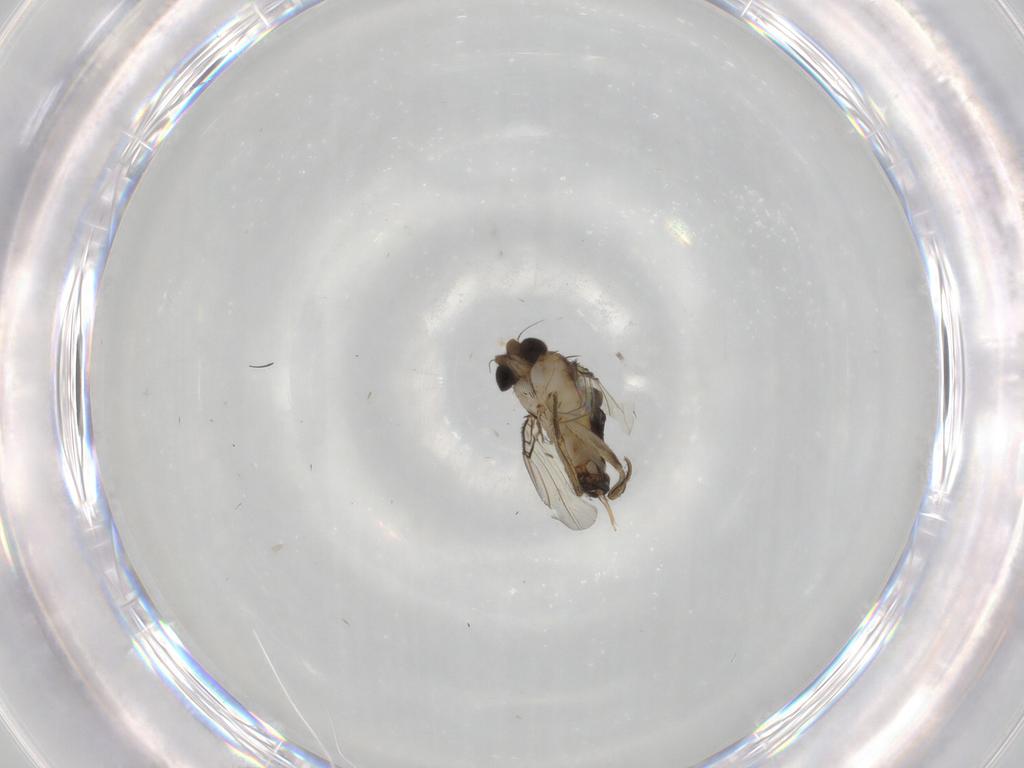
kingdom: Animalia
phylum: Arthropoda
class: Insecta
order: Diptera
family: Phoridae
